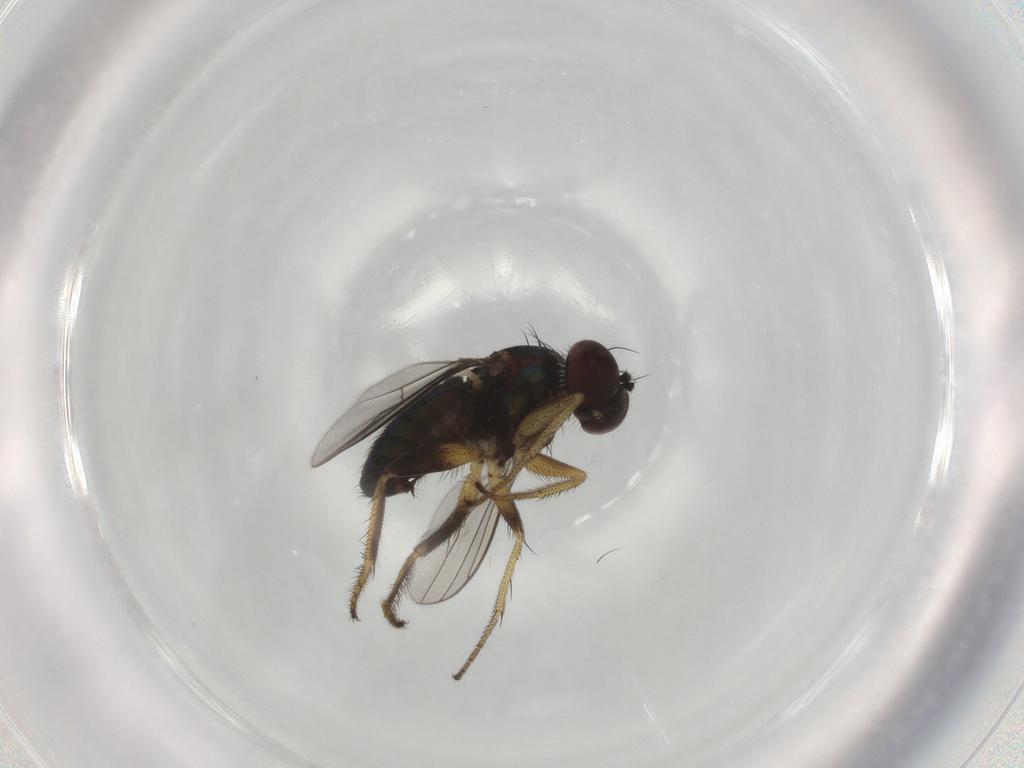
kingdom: Animalia
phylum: Arthropoda
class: Insecta
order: Diptera
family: Dolichopodidae
